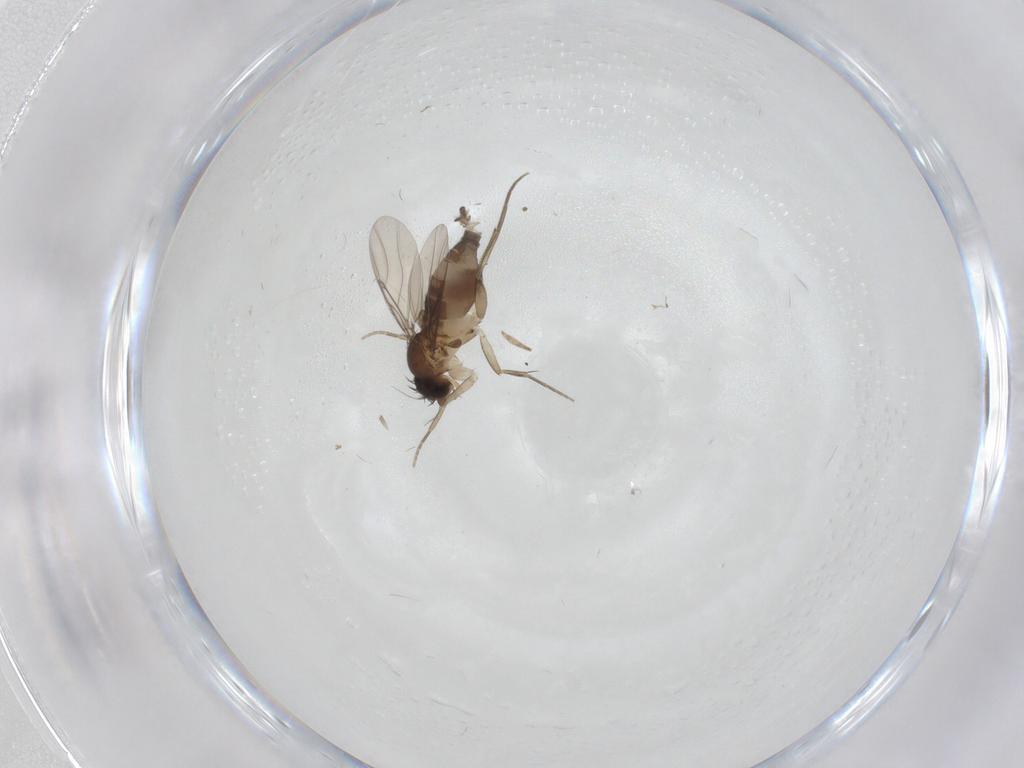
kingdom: Animalia
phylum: Arthropoda
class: Insecta
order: Diptera
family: Phoridae
